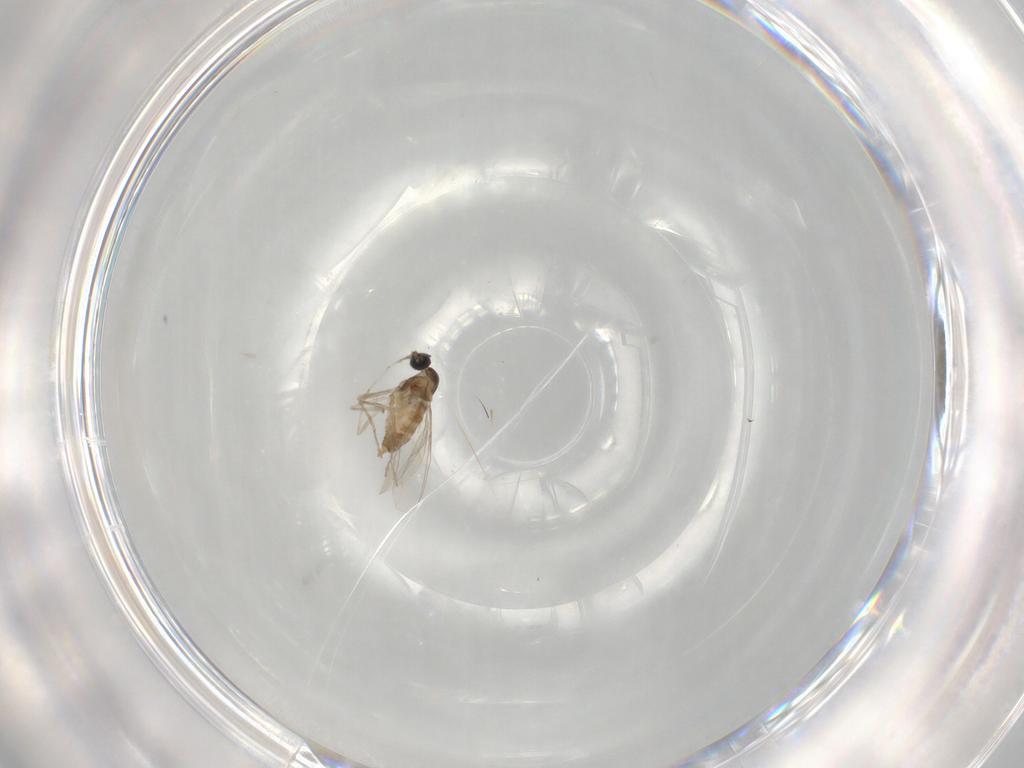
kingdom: Animalia
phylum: Arthropoda
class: Insecta
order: Diptera
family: Cecidomyiidae
